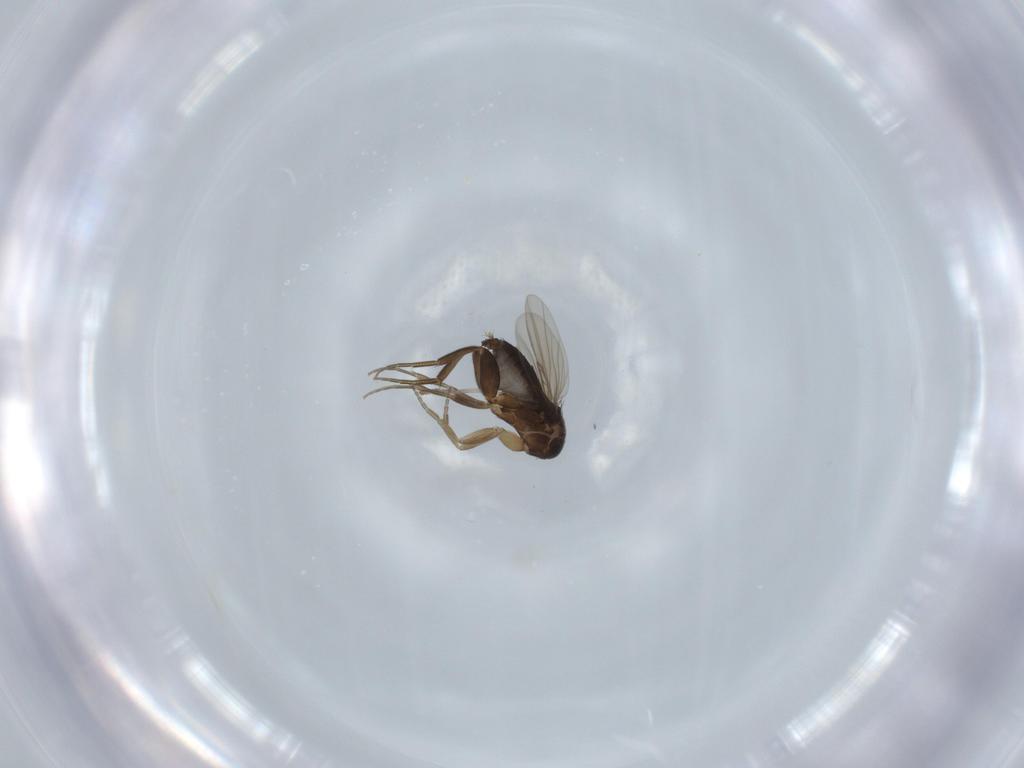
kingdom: Animalia
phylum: Arthropoda
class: Insecta
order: Diptera
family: Phoridae
